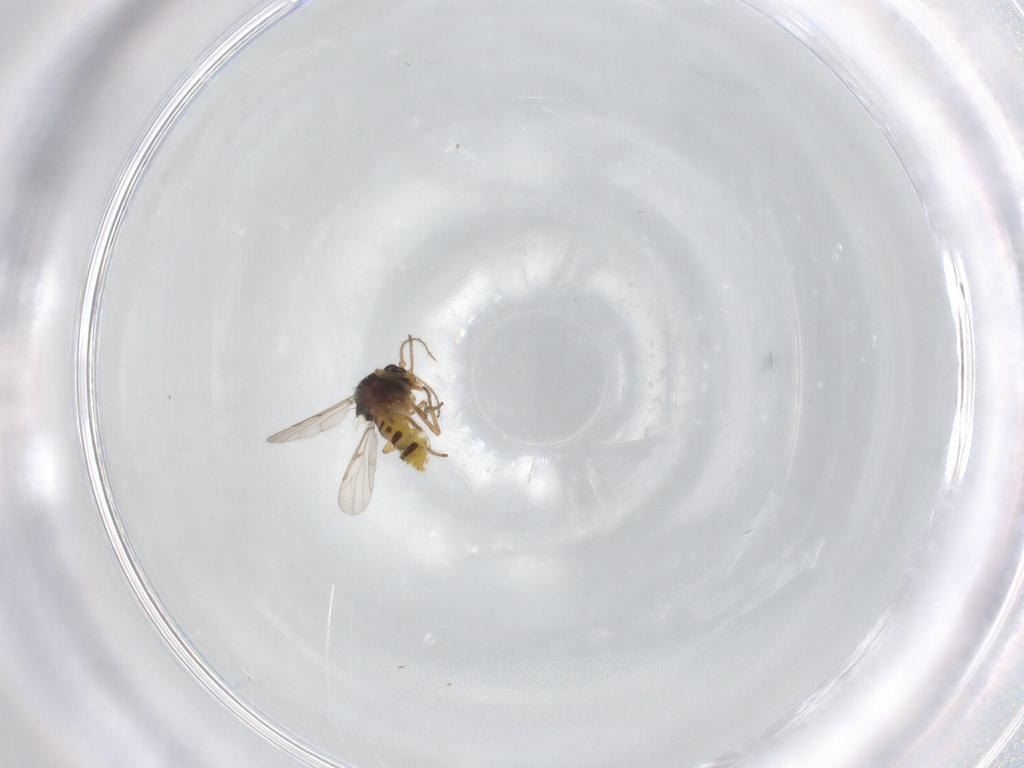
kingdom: Animalia
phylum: Arthropoda
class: Insecta
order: Diptera
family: Ceratopogonidae
